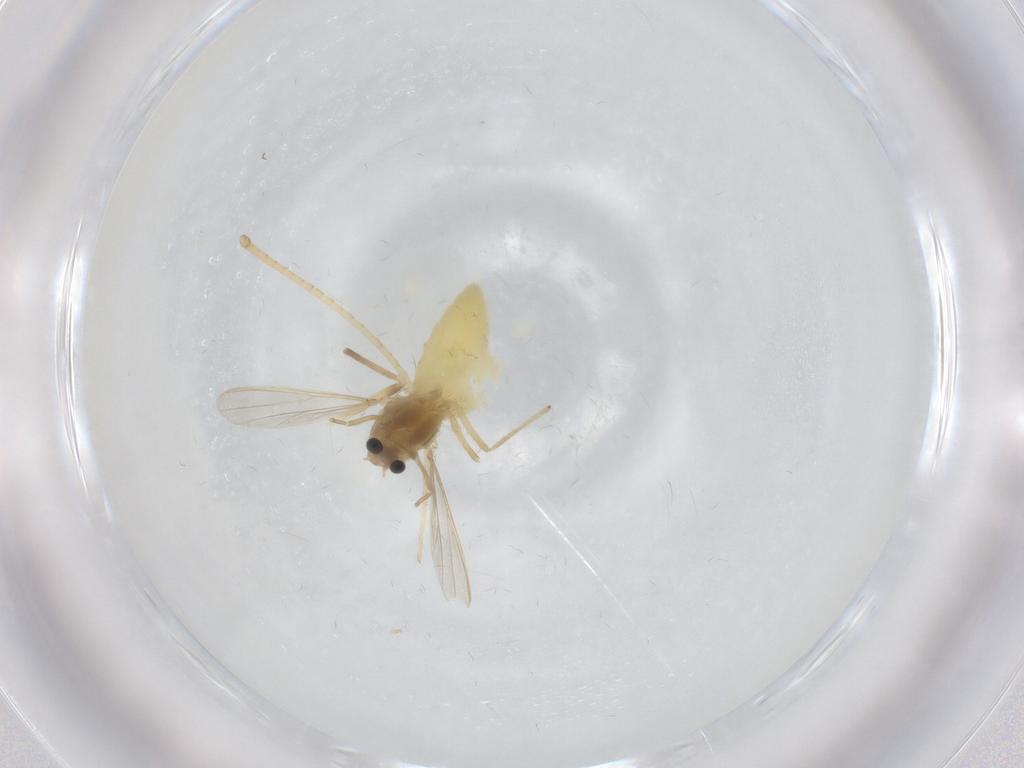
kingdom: Animalia
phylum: Arthropoda
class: Insecta
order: Diptera
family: Chironomidae
